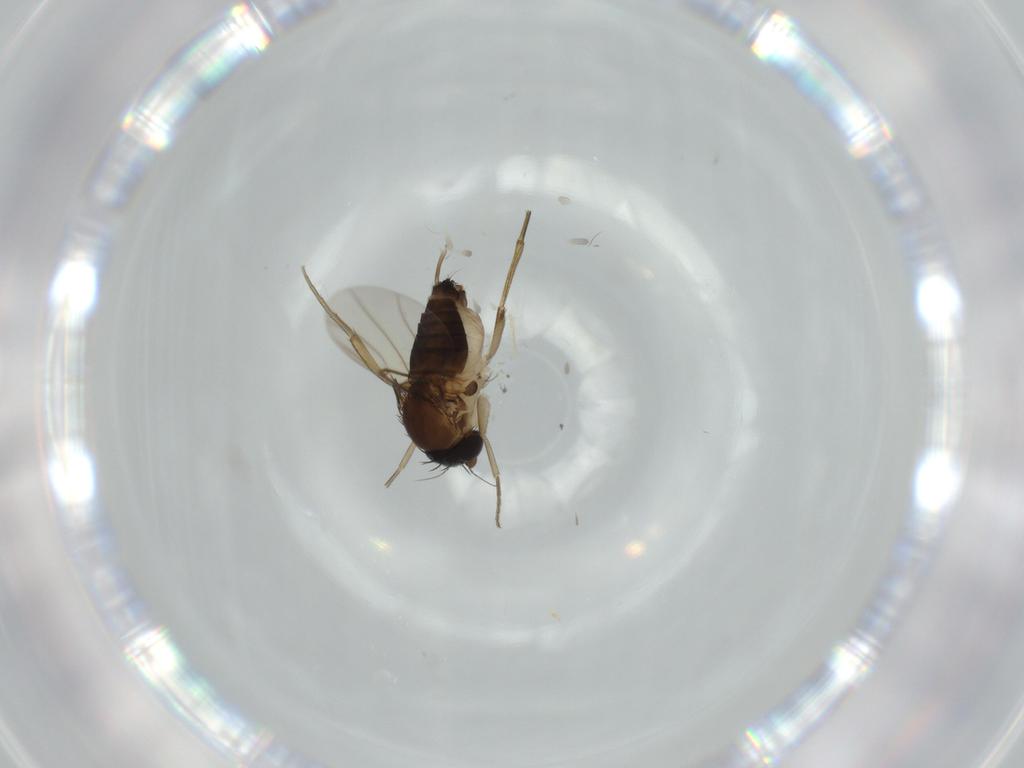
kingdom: Animalia
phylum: Arthropoda
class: Insecta
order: Diptera
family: Phoridae
